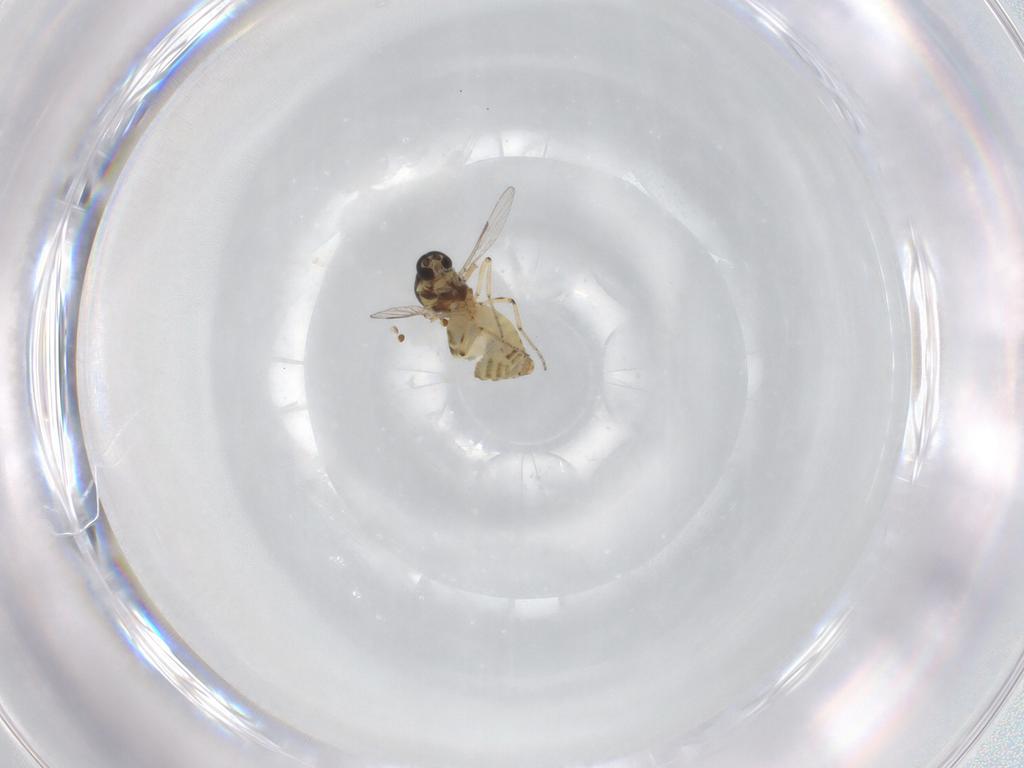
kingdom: Animalia
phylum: Arthropoda
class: Insecta
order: Diptera
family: Ceratopogonidae
